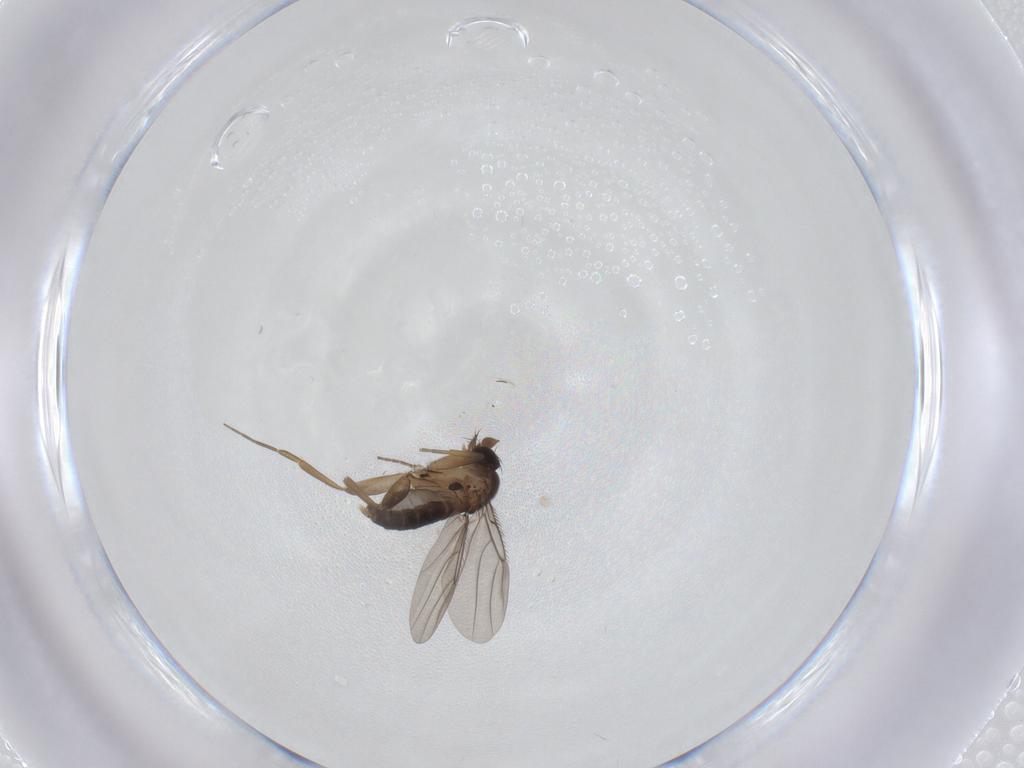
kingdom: Animalia
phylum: Arthropoda
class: Insecta
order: Diptera
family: Phoridae
